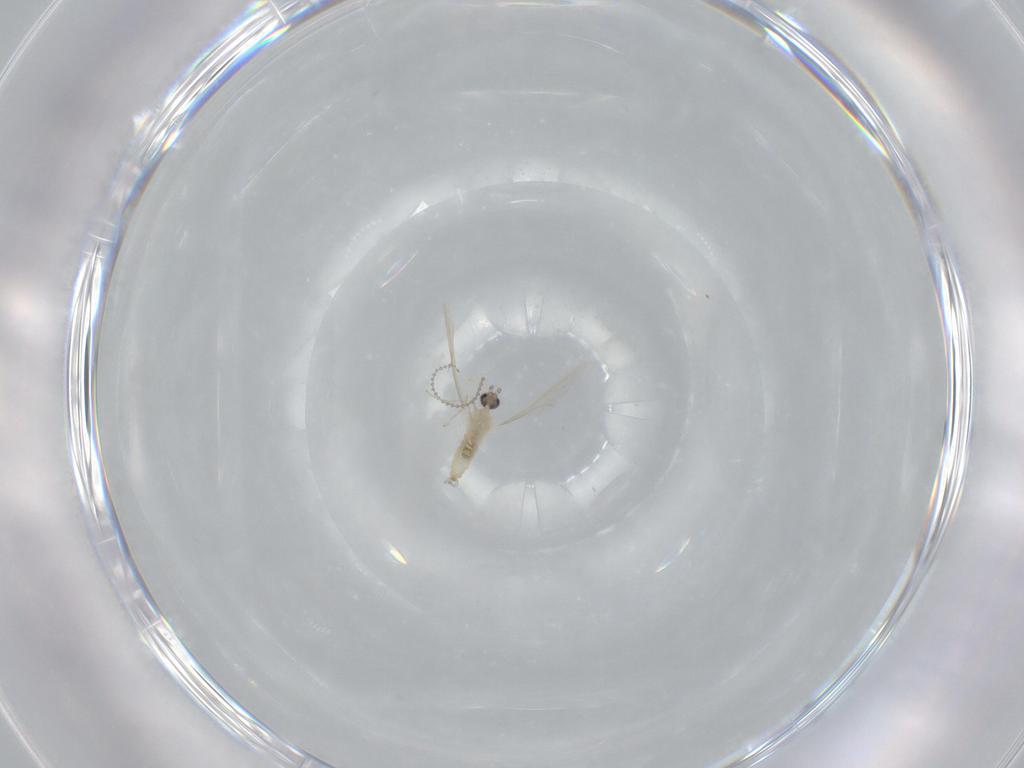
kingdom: Animalia
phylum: Arthropoda
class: Insecta
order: Diptera
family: Cecidomyiidae
